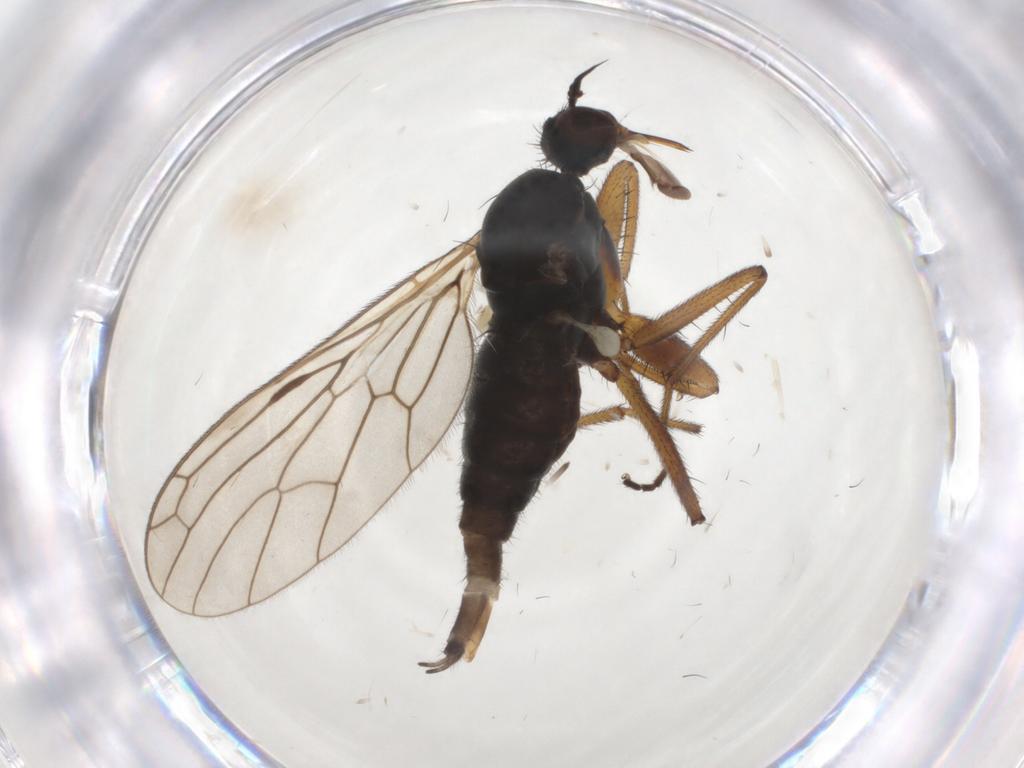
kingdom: Animalia
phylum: Arthropoda
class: Insecta
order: Diptera
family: Empididae
